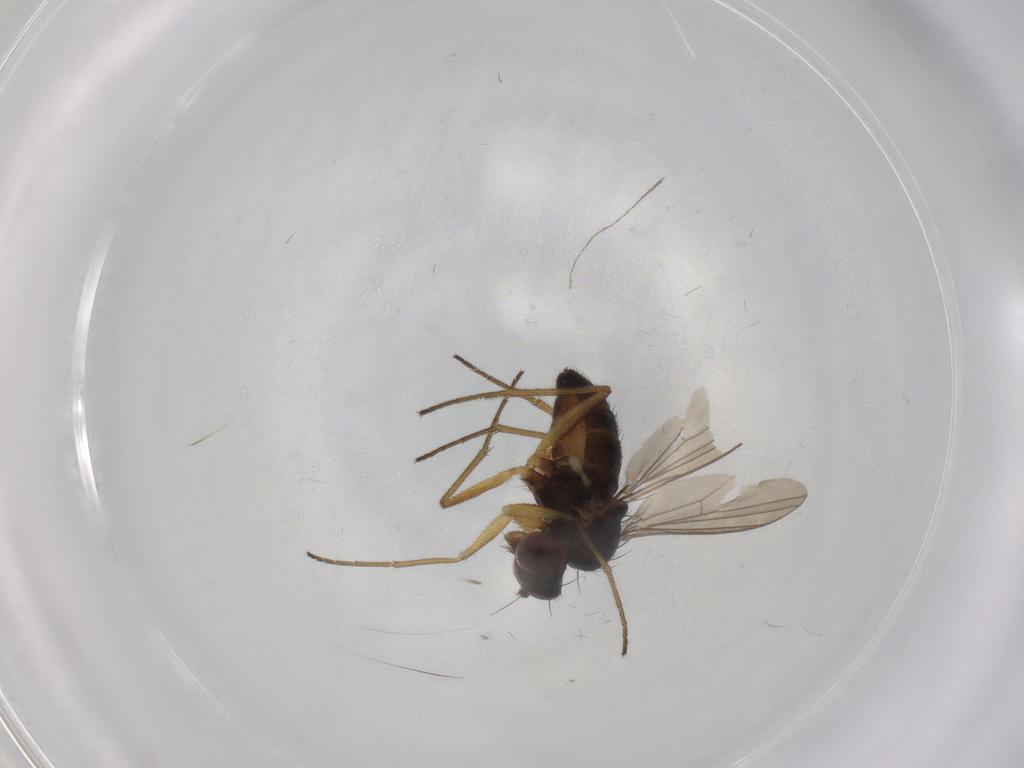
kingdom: Animalia
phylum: Arthropoda
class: Insecta
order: Diptera
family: Dolichopodidae
